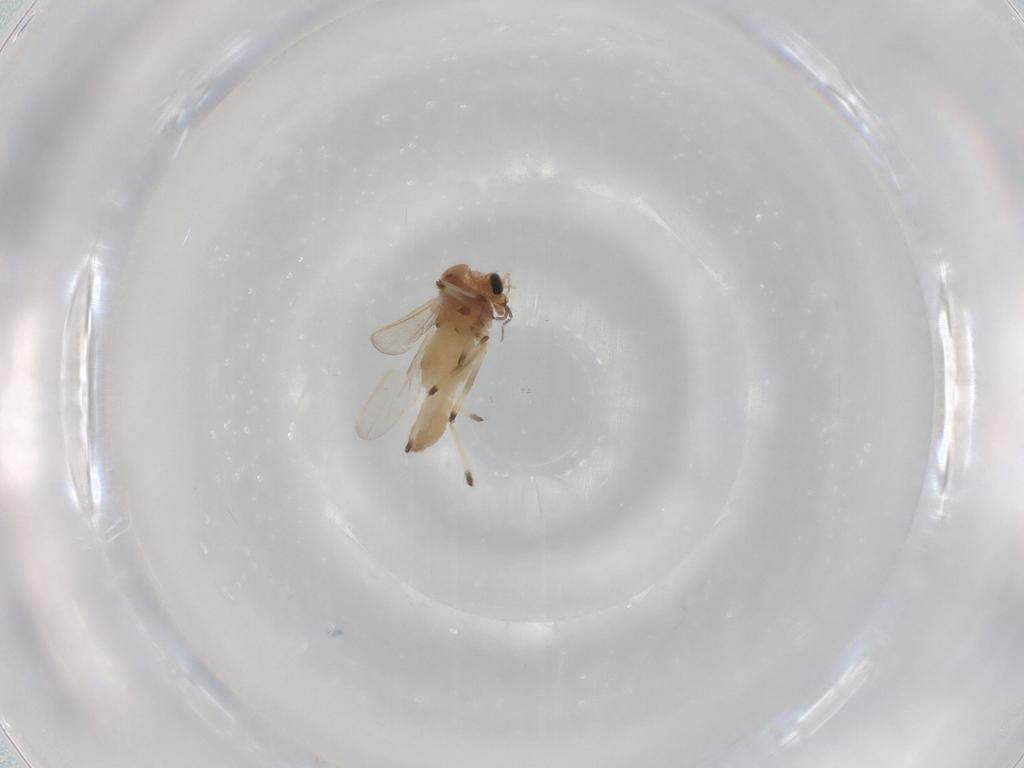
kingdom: Animalia
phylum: Arthropoda
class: Insecta
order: Diptera
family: Chironomidae
